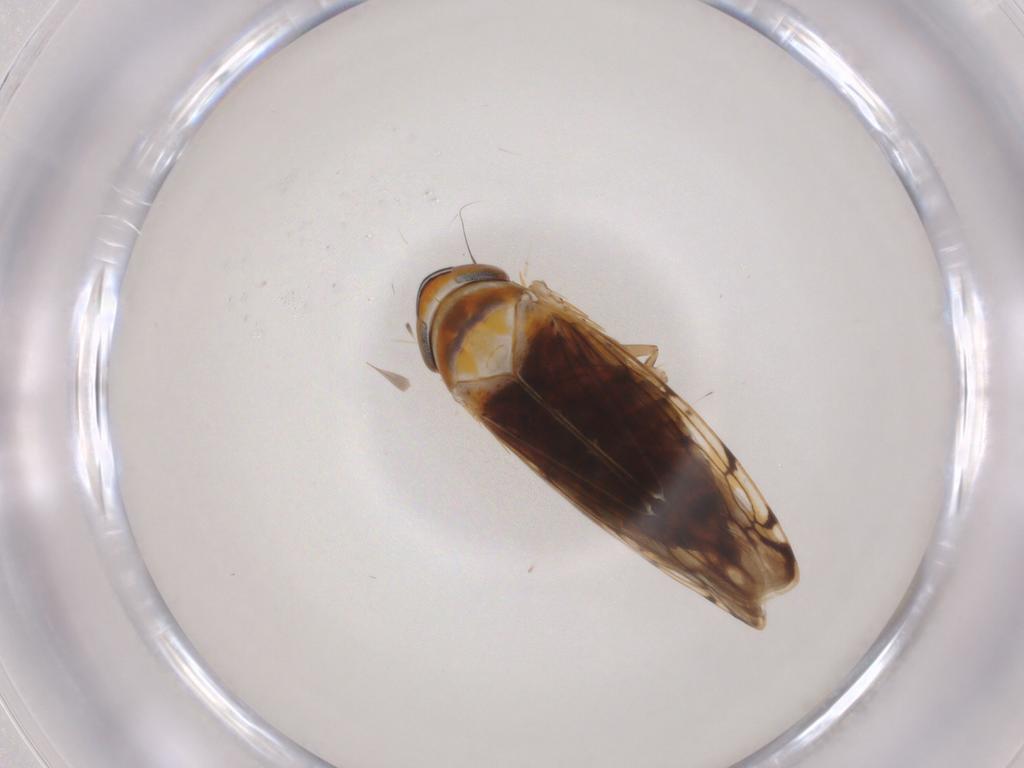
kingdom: Animalia
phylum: Arthropoda
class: Insecta
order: Hemiptera
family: Cicadellidae
